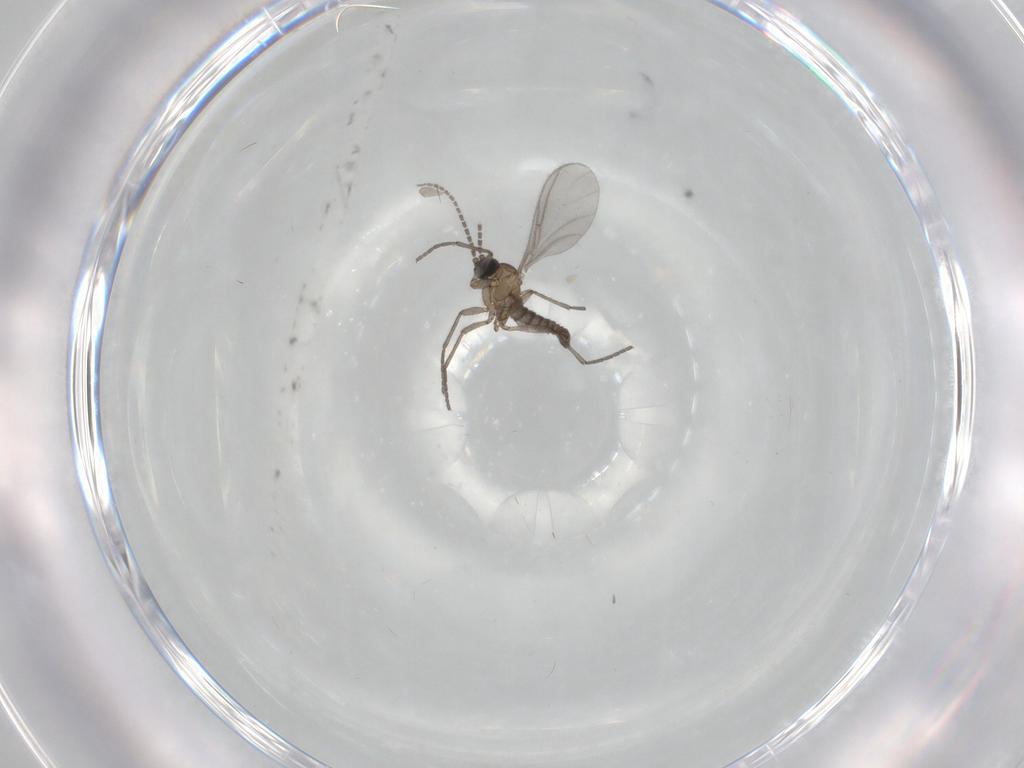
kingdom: Animalia
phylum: Arthropoda
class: Insecta
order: Diptera
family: Sciaridae
